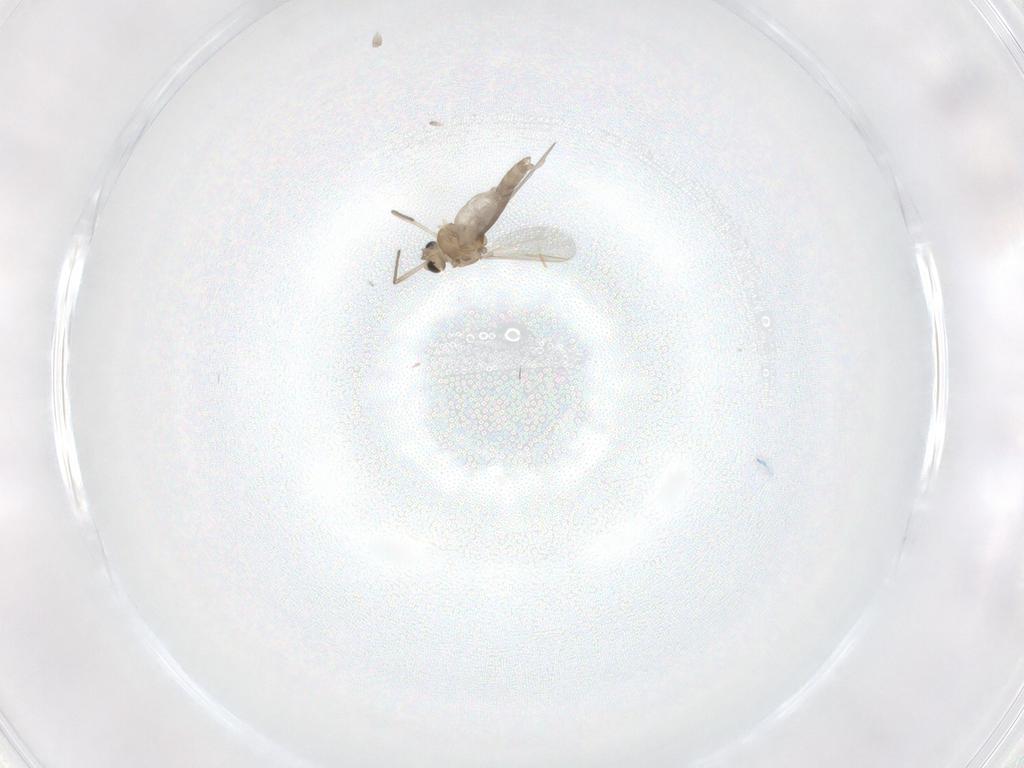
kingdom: Animalia
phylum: Arthropoda
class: Insecta
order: Diptera
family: Chironomidae
